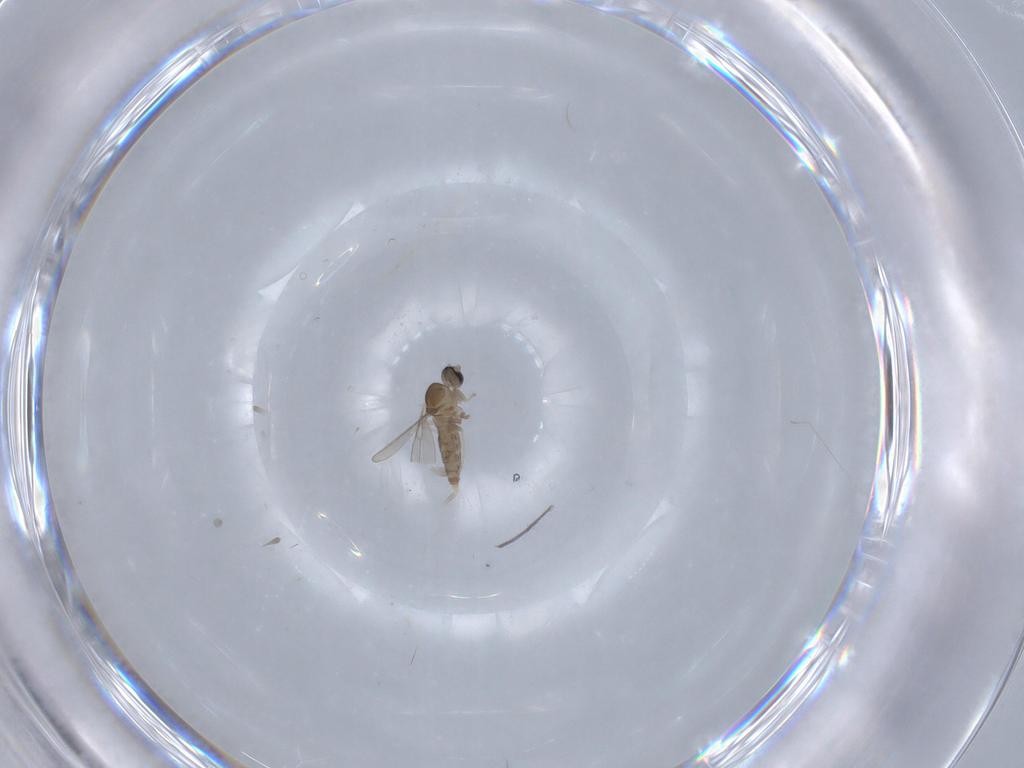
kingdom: Animalia
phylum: Arthropoda
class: Insecta
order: Diptera
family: Cecidomyiidae
